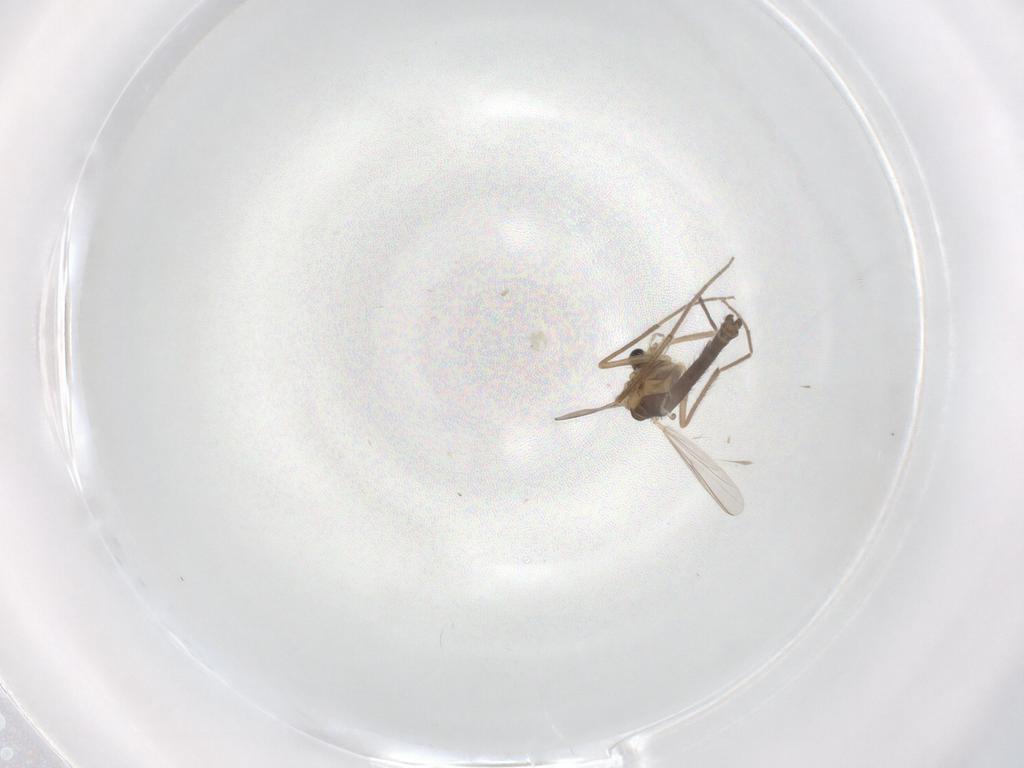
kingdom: Animalia
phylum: Arthropoda
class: Insecta
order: Diptera
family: Chironomidae
